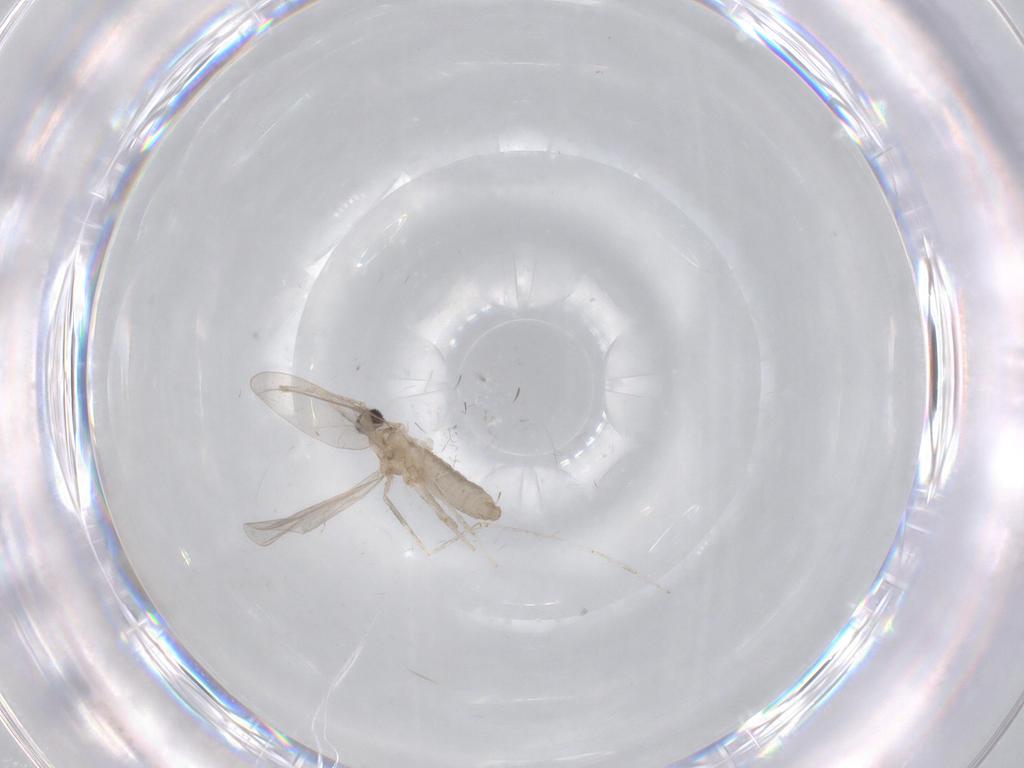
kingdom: Animalia
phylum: Arthropoda
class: Insecta
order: Diptera
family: Cecidomyiidae
